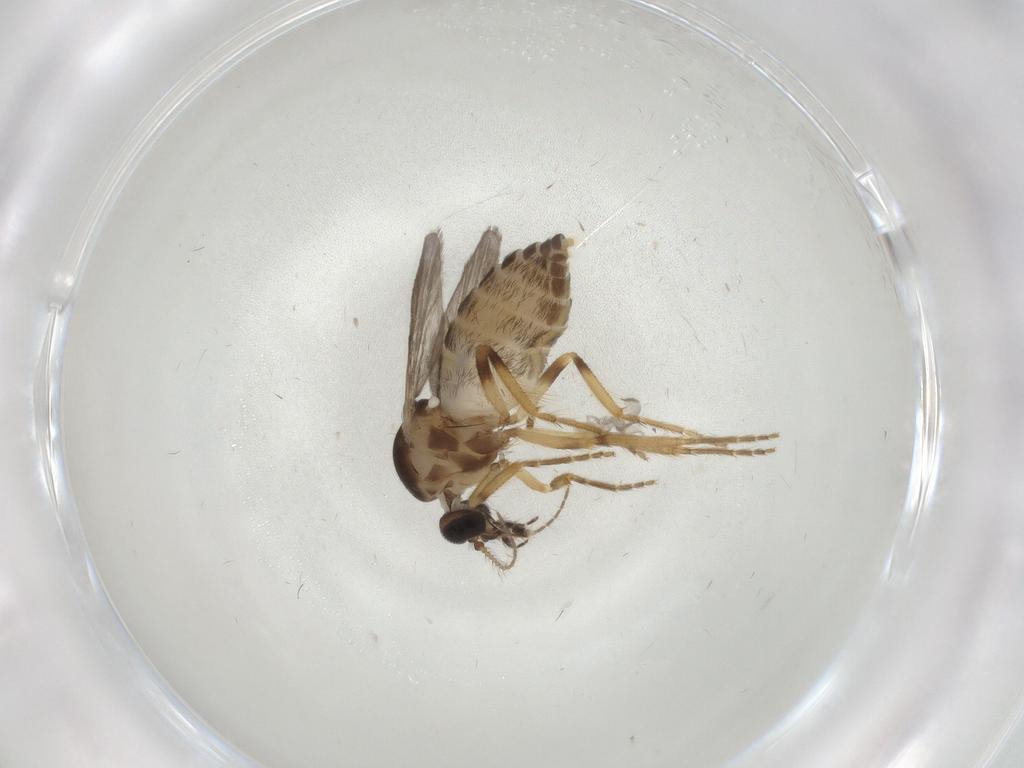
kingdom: Animalia
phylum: Arthropoda
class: Insecta
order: Diptera
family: Ceratopogonidae
